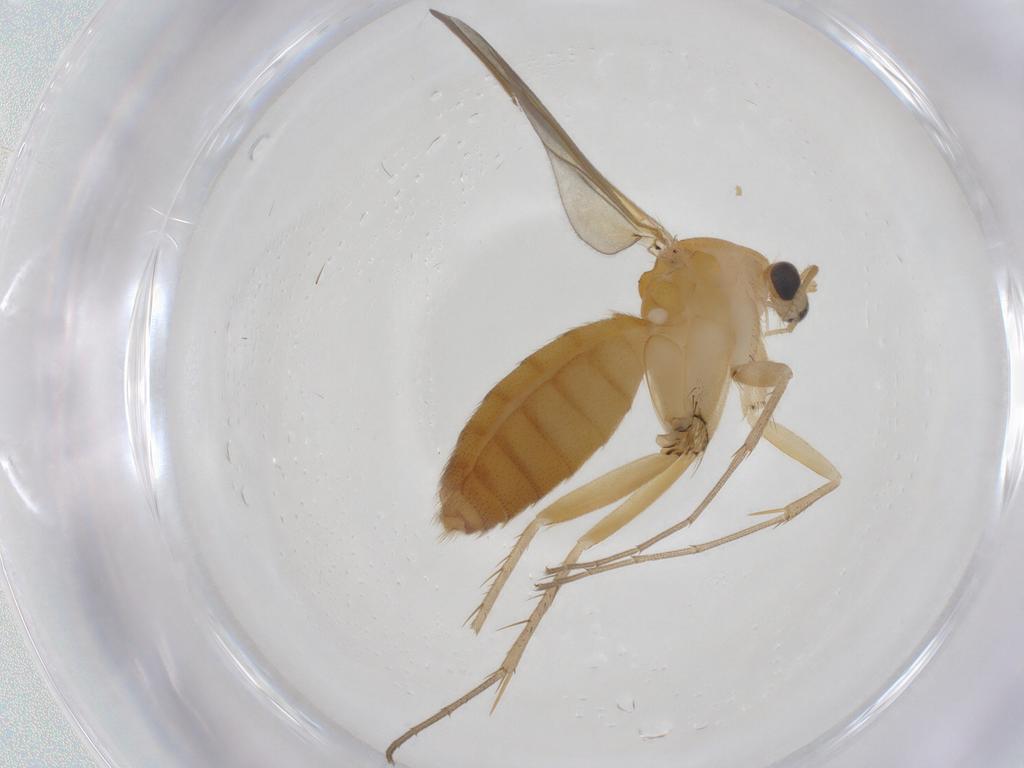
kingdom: Animalia
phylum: Arthropoda
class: Insecta
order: Diptera
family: Mycetophilidae
